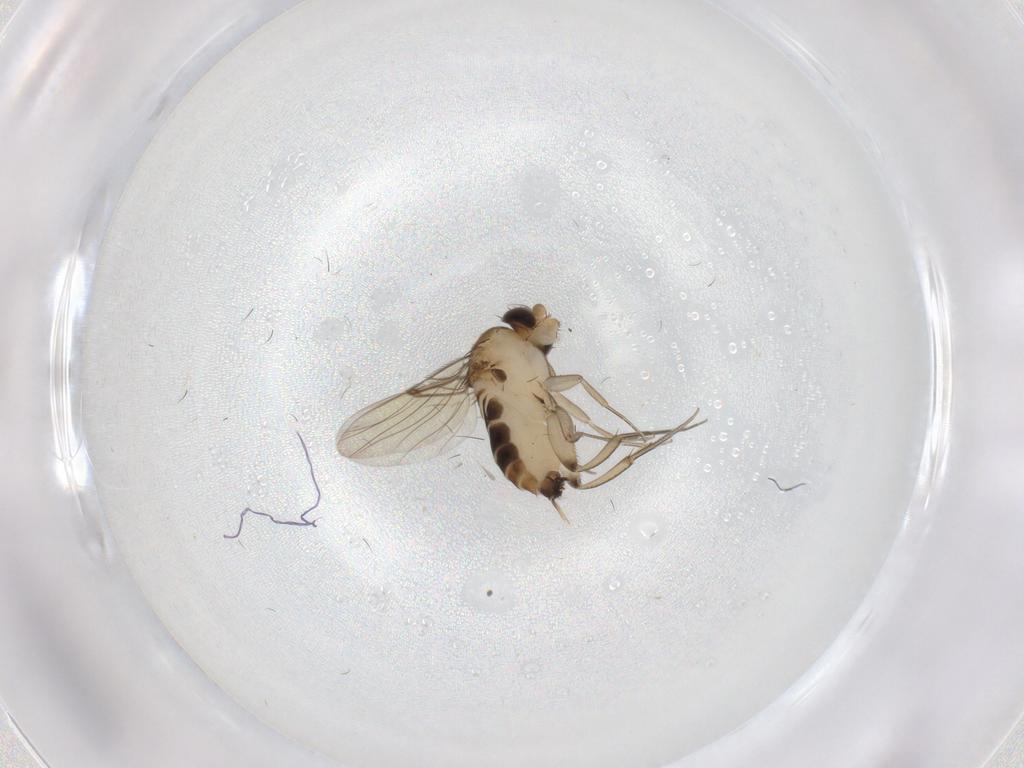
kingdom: Animalia
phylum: Arthropoda
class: Insecta
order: Diptera
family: Phoridae
